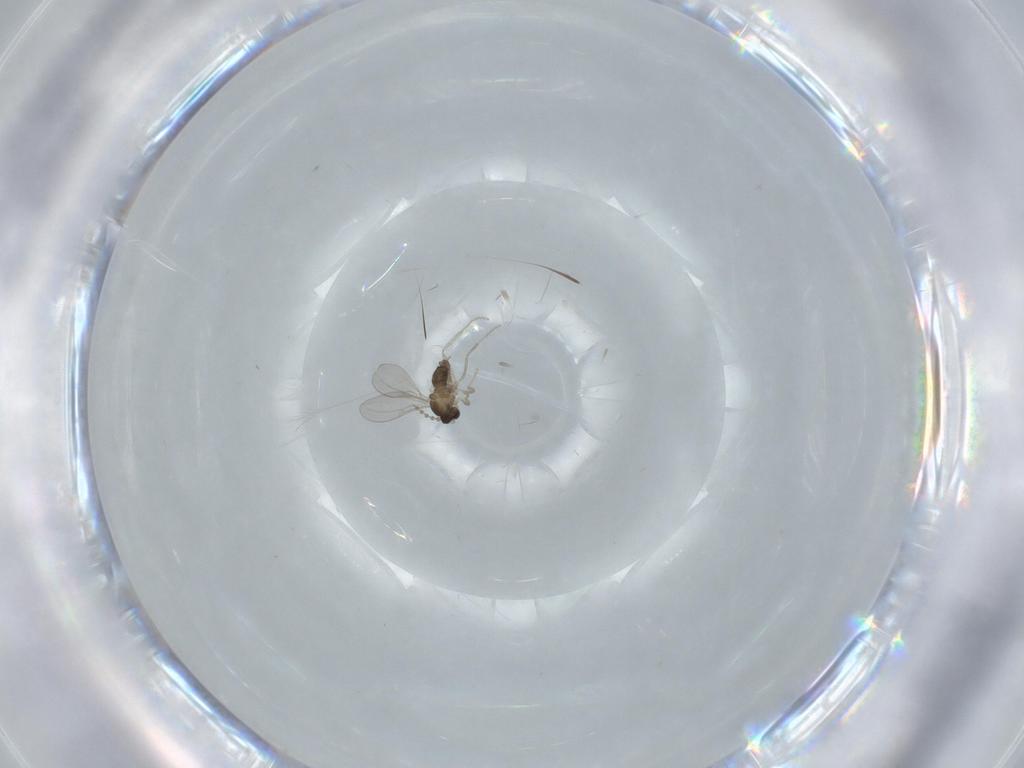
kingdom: Animalia
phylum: Arthropoda
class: Insecta
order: Diptera
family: Cecidomyiidae
